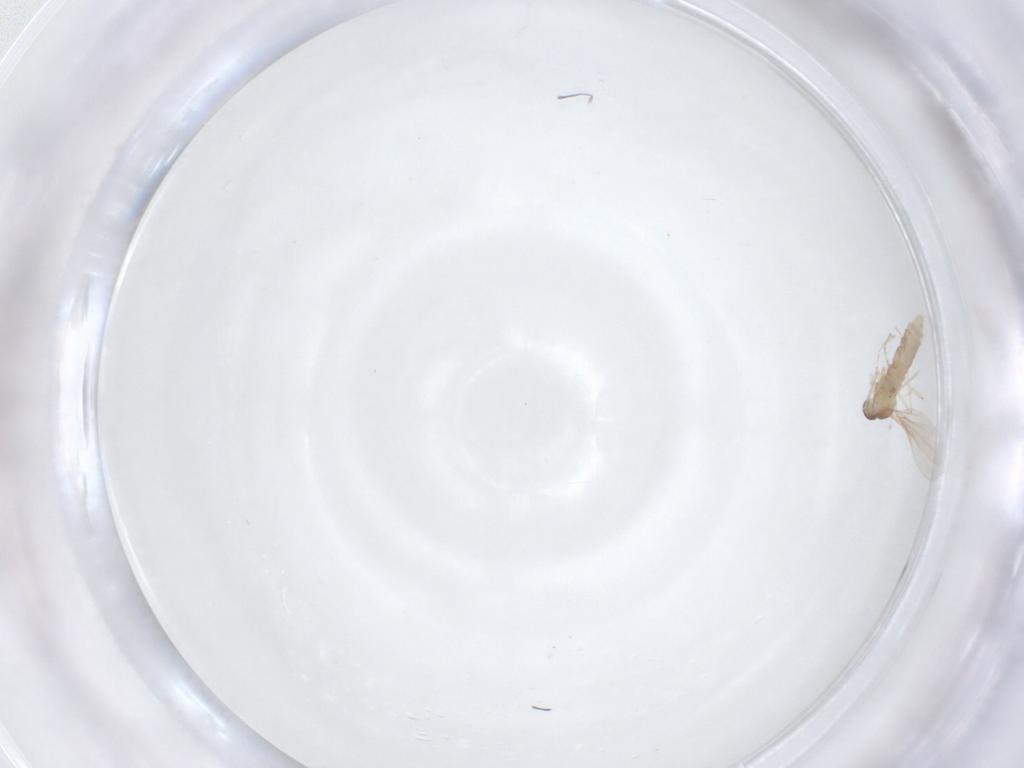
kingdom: Animalia
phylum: Arthropoda
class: Insecta
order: Diptera
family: Cecidomyiidae
